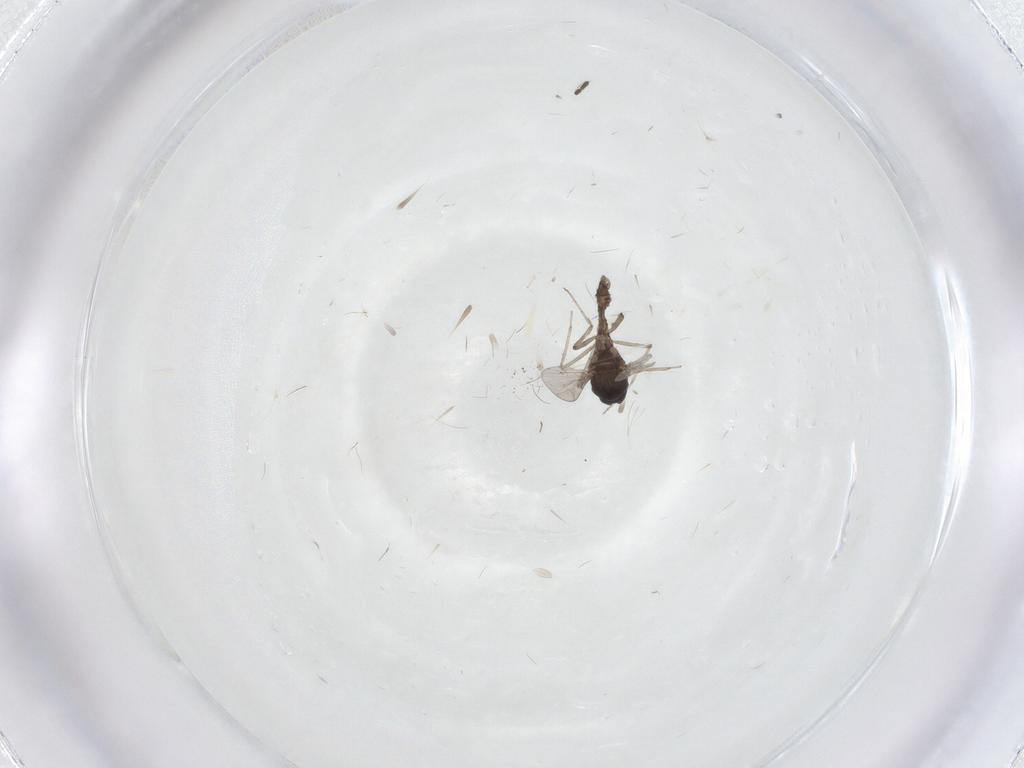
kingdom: Animalia
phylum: Arthropoda
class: Insecta
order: Diptera
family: Ceratopogonidae
